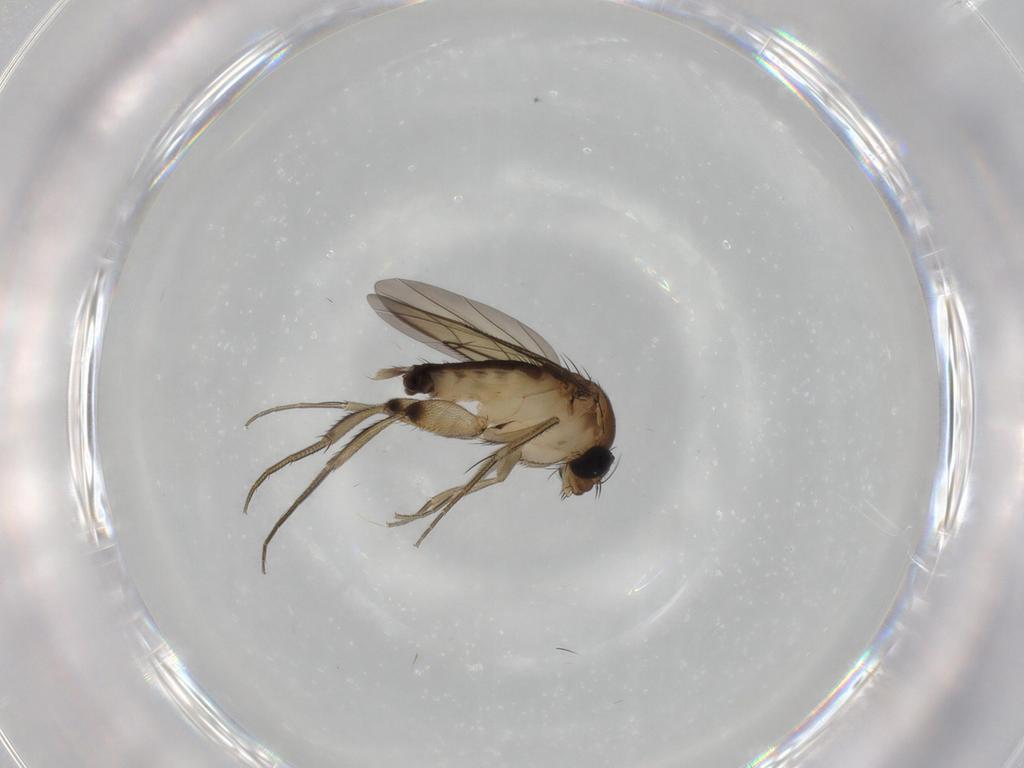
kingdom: Animalia
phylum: Arthropoda
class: Insecta
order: Diptera
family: Phoridae
